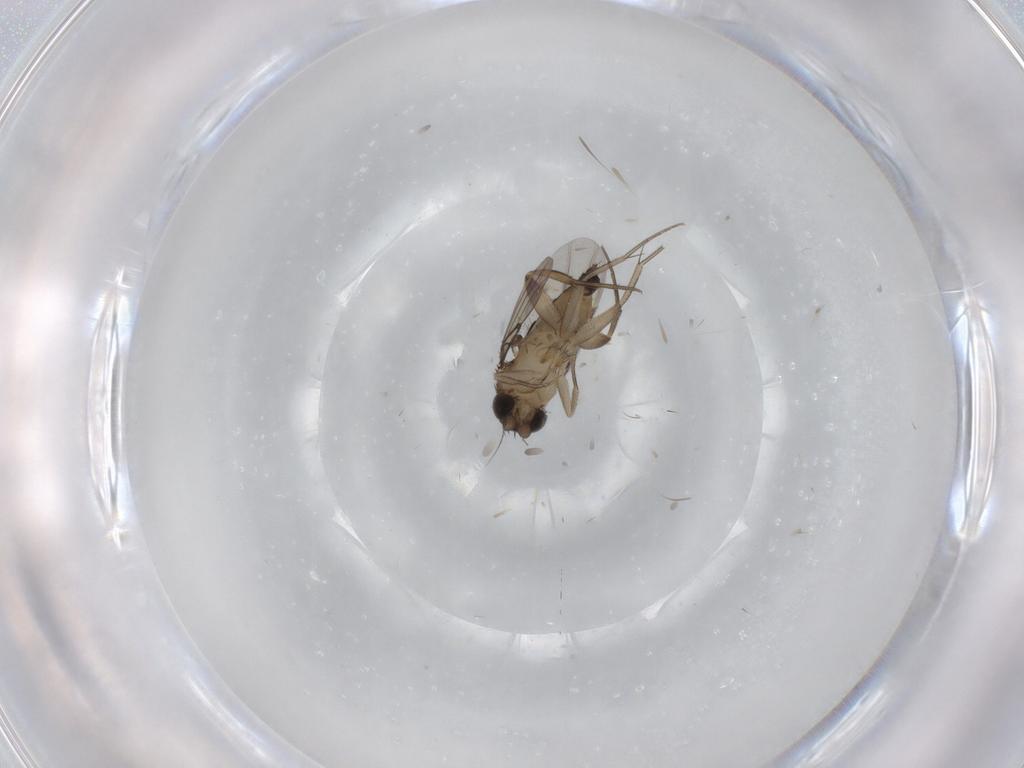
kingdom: Animalia
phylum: Arthropoda
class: Insecta
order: Diptera
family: Phoridae
